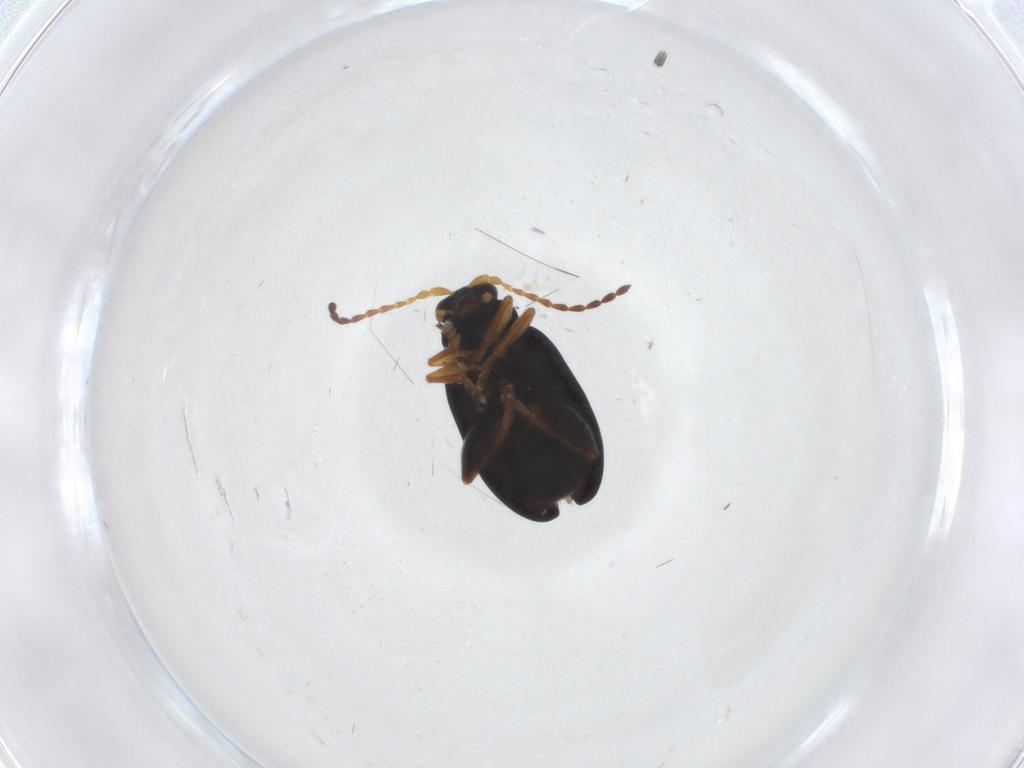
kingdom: Animalia
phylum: Arthropoda
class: Insecta
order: Coleoptera
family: Chrysomelidae
